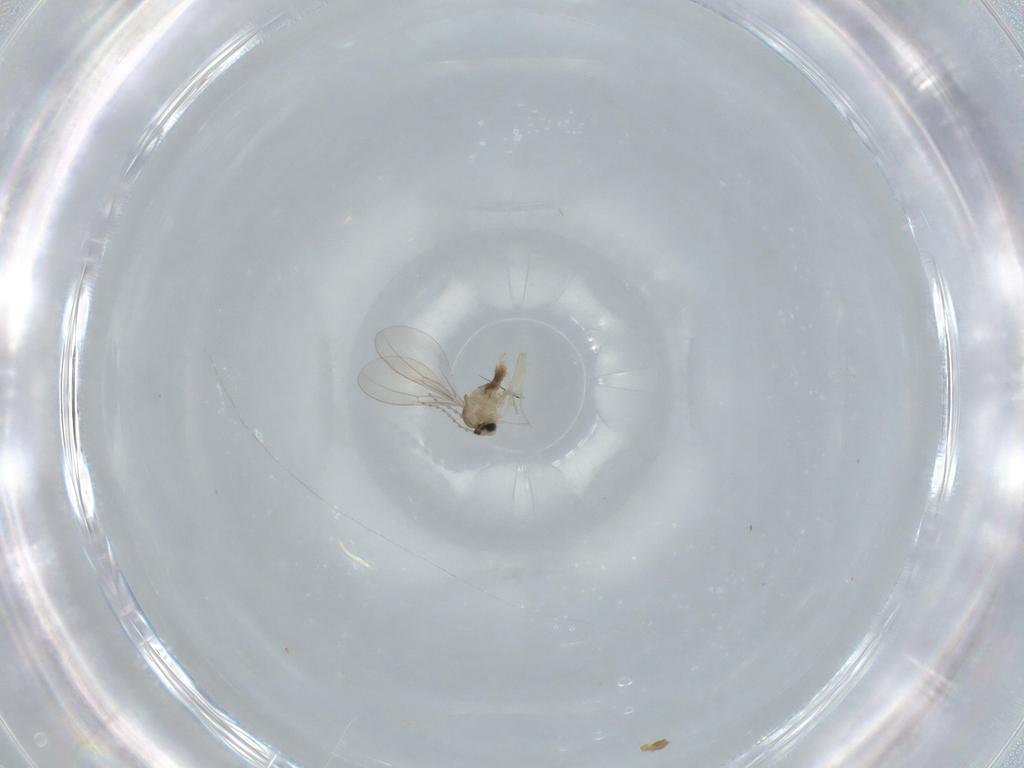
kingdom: Animalia
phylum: Arthropoda
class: Insecta
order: Diptera
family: Cecidomyiidae
